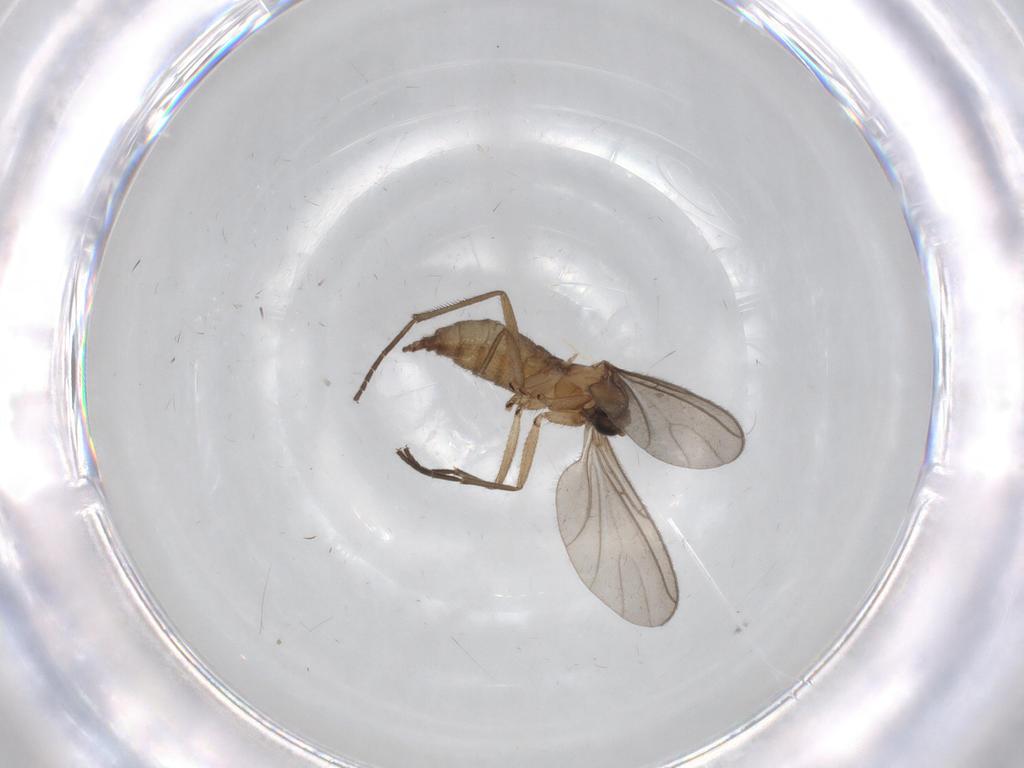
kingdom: Animalia
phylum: Arthropoda
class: Insecta
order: Diptera
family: Sciaridae
